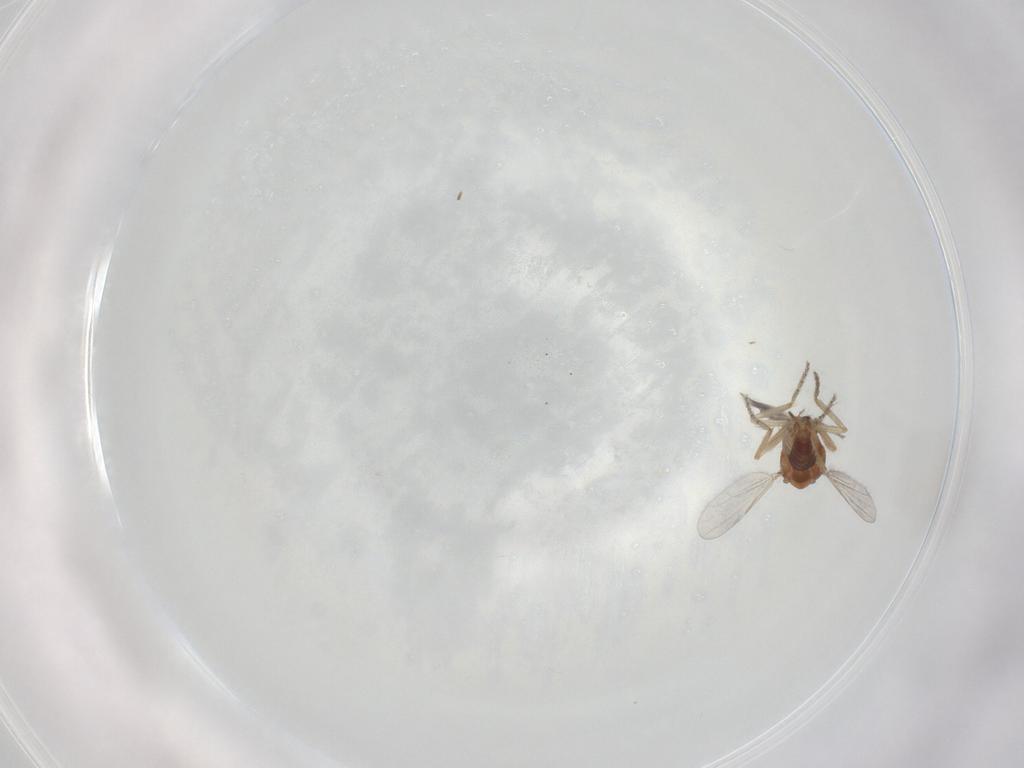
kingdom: Animalia
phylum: Arthropoda
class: Insecta
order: Diptera
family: Ceratopogonidae
